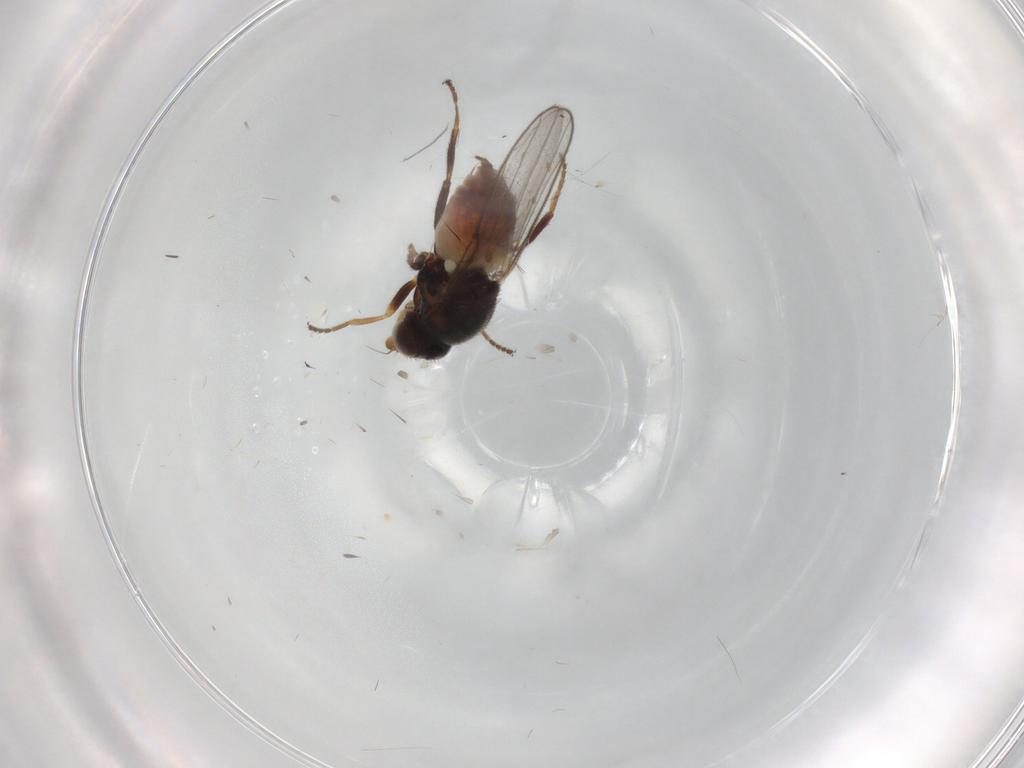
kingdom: Animalia
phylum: Arthropoda
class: Insecta
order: Diptera
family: Chloropidae
